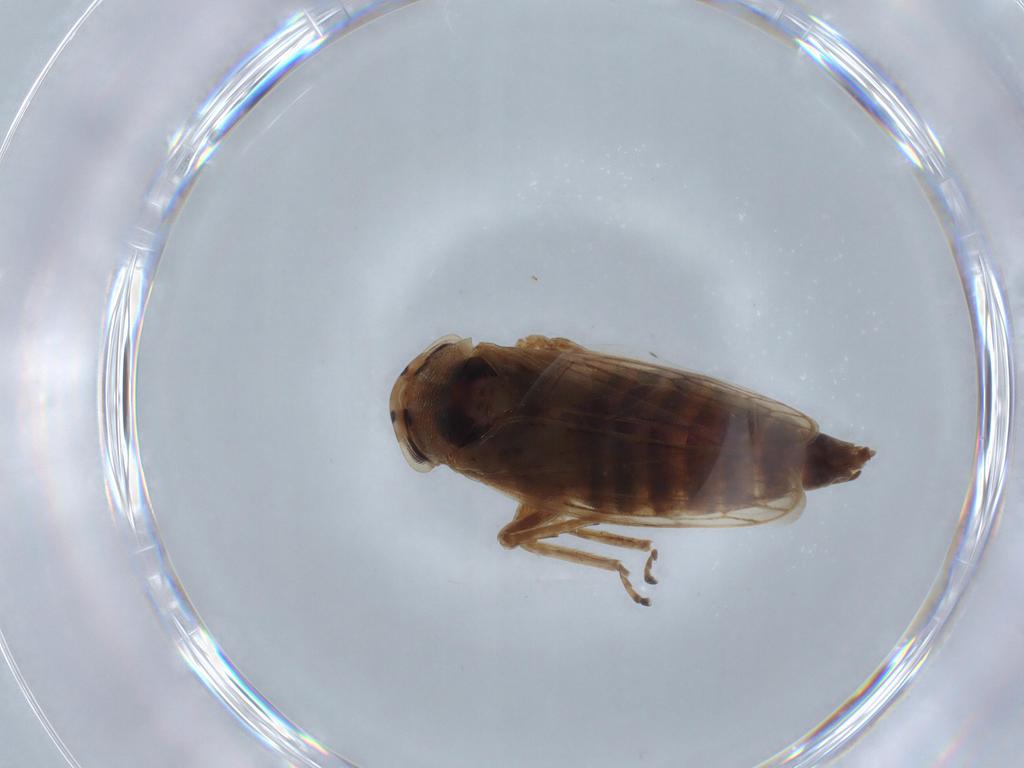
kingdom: Animalia
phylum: Arthropoda
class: Insecta
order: Hemiptera
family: Cicadellidae
